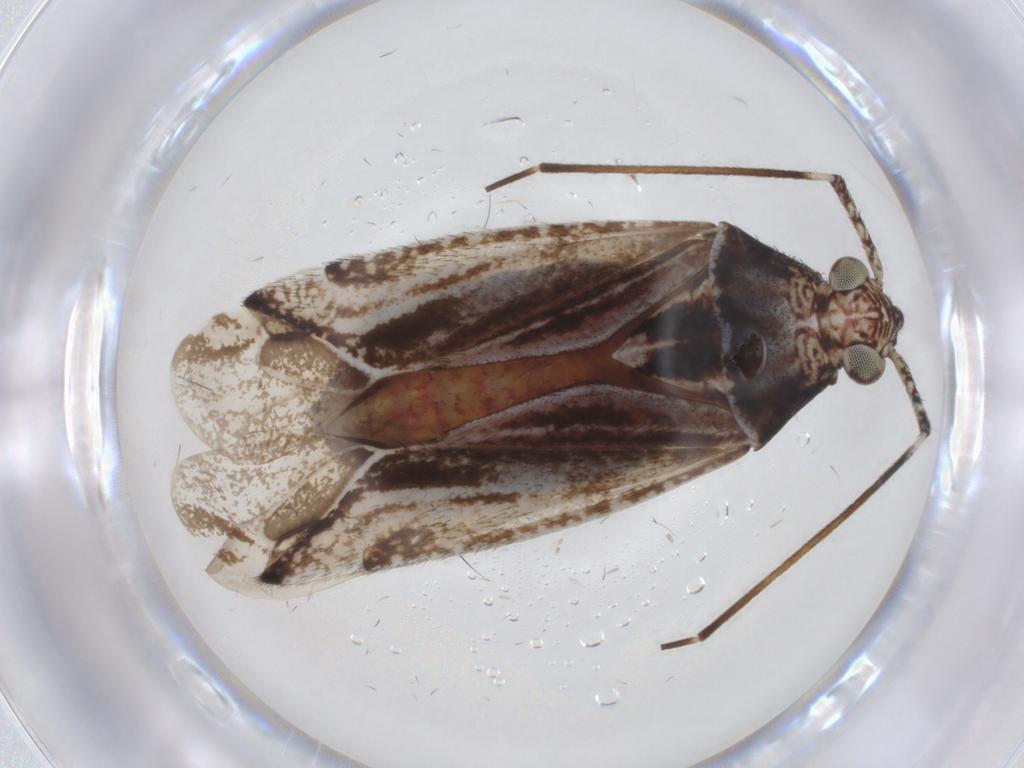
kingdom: Animalia
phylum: Arthropoda
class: Insecta
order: Hemiptera
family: Miridae
